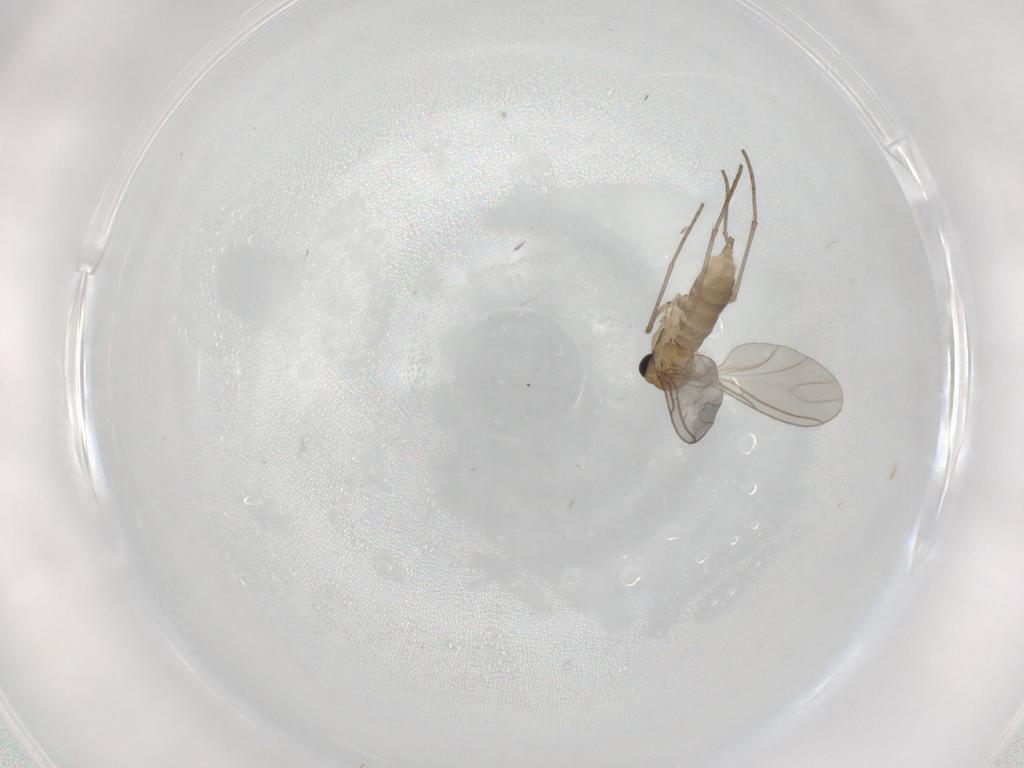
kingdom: Animalia
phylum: Arthropoda
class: Insecta
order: Diptera
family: Sciaridae
